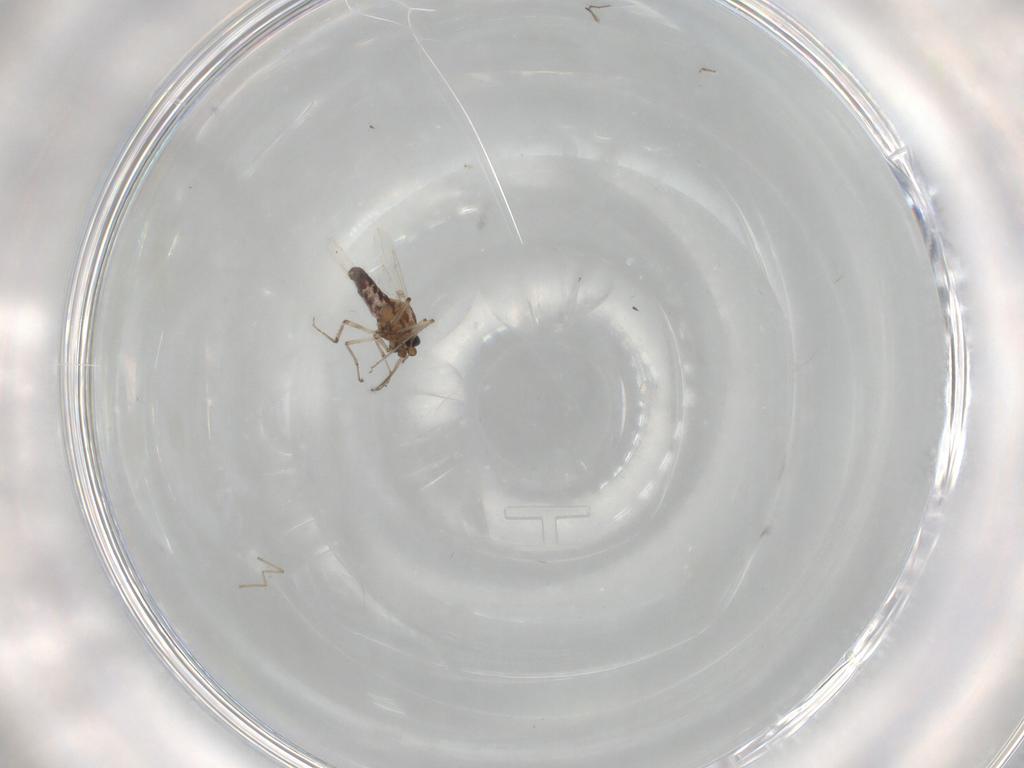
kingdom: Animalia
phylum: Arthropoda
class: Insecta
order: Diptera
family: Ceratopogonidae
